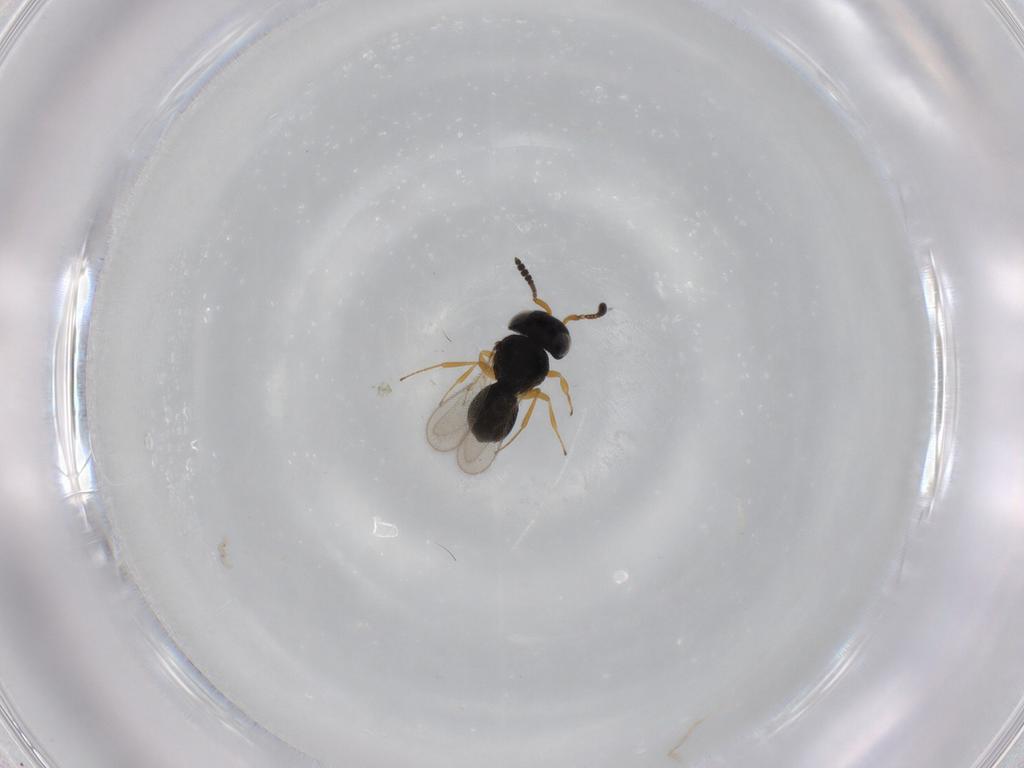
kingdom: Animalia
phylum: Arthropoda
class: Insecta
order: Hymenoptera
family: Scelionidae
